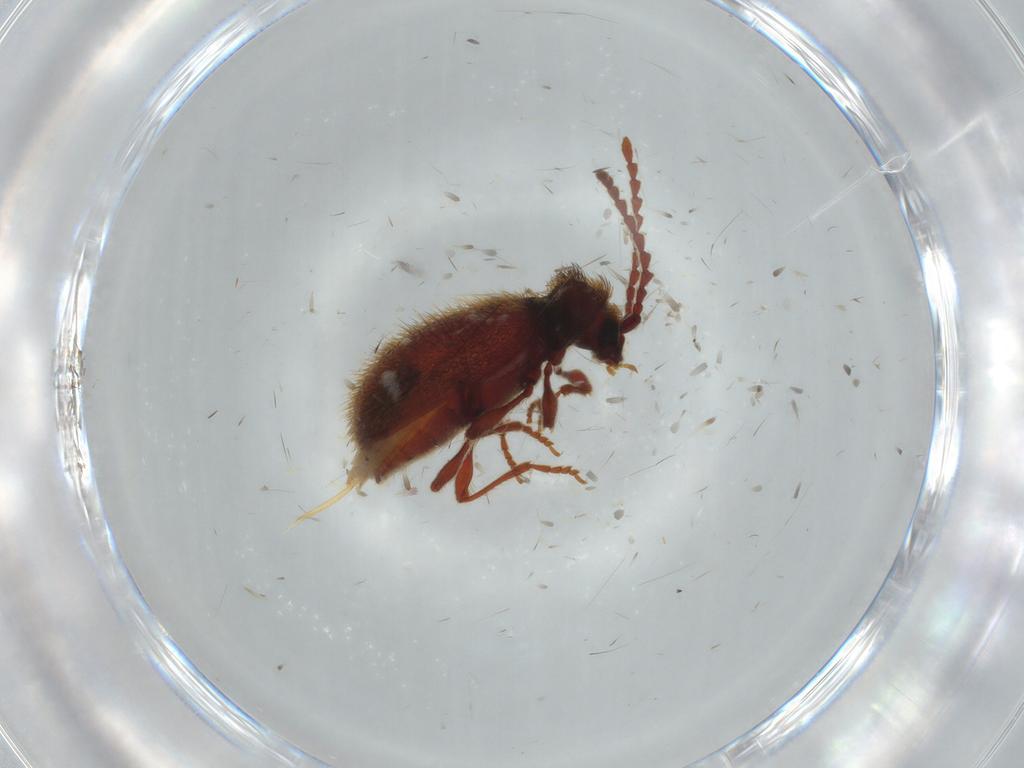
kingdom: Animalia
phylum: Arthropoda
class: Insecta
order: Coleoptera
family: Ptinidae
